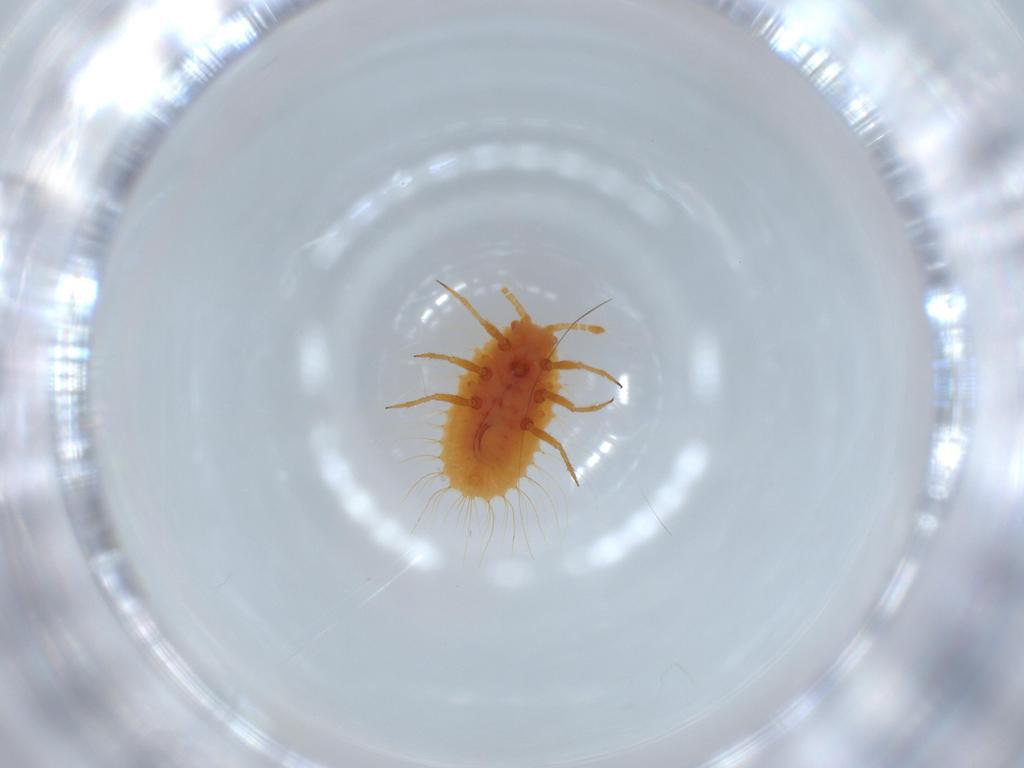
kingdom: Animalia
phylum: Arthropoda
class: Insecta
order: Hemiptera
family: Coccoidea_incertae_sedis
